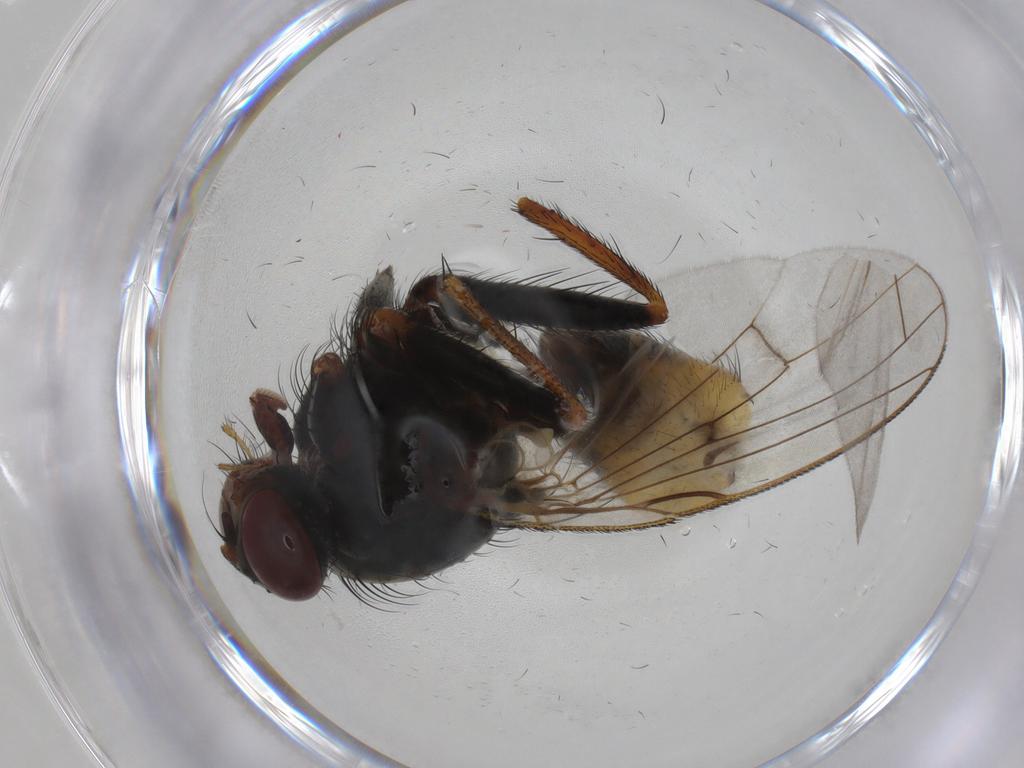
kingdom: Animalia
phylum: Arthropoda
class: Insecta
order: Diptera
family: Muscidae
